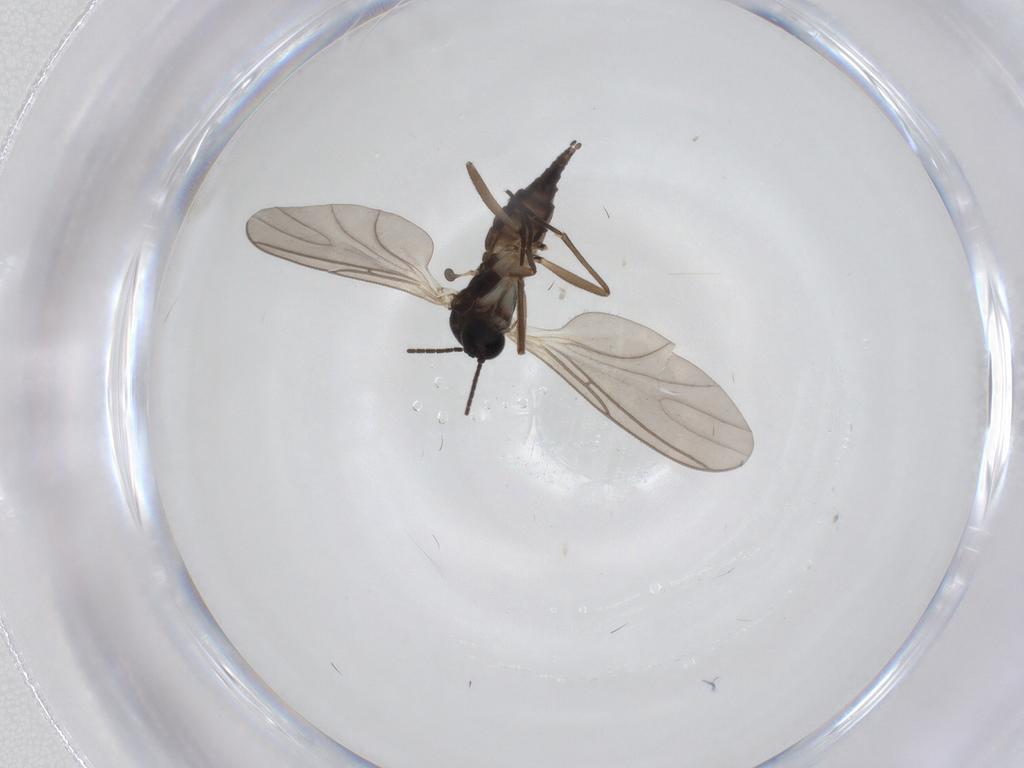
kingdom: Animalia
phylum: Arthropoda
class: Insecta
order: Diptera
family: Sciaridae
